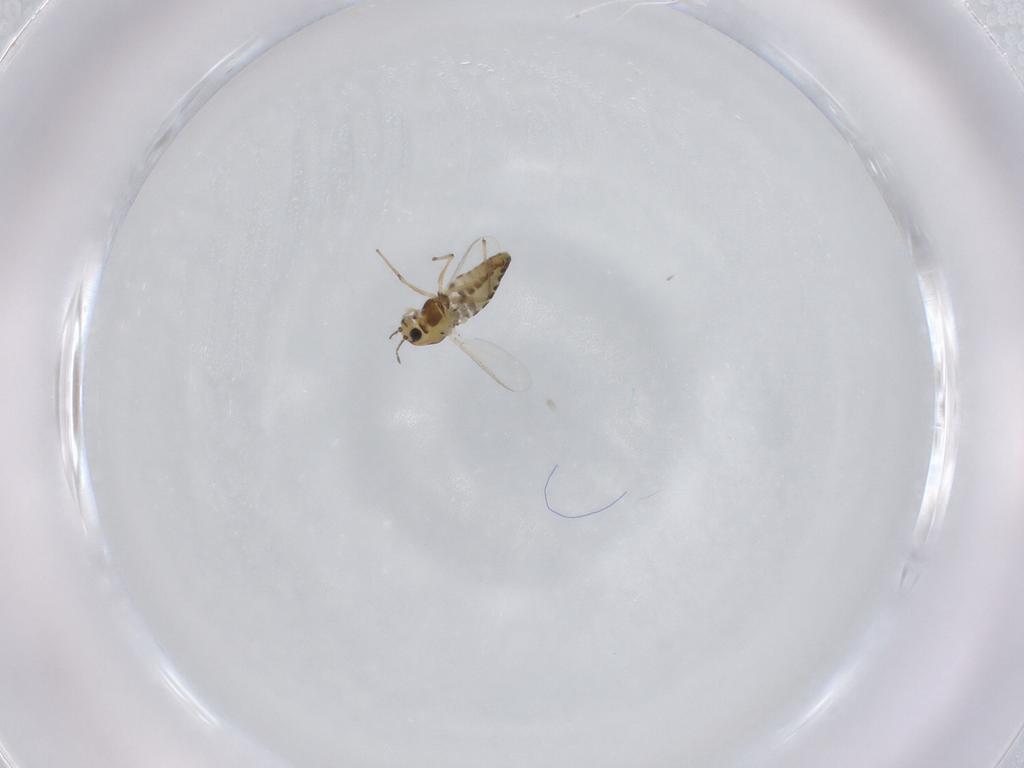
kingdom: Animalia
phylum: Arthropoda
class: Insecta
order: Diptera
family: Chironomidae
